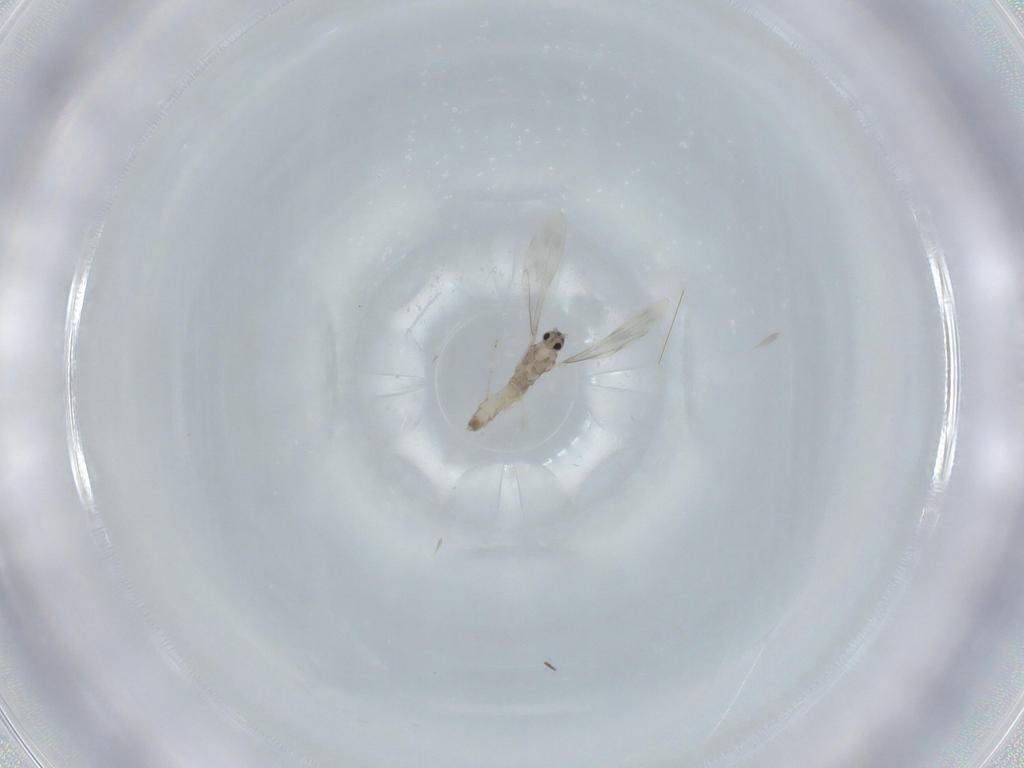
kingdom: Animalia
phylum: Arthropoda
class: Insecta
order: Diptera
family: Cecidomyiidae
